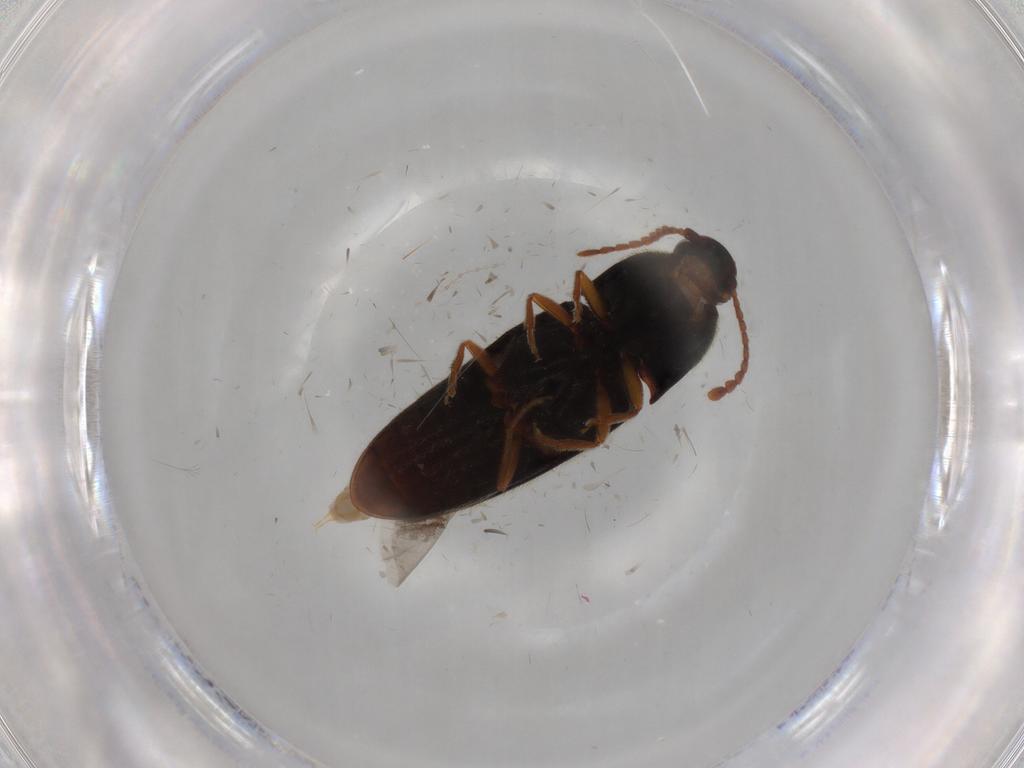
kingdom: Animalia
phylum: Arthropoda
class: Insecta
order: Coleoptera
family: Elateridae
